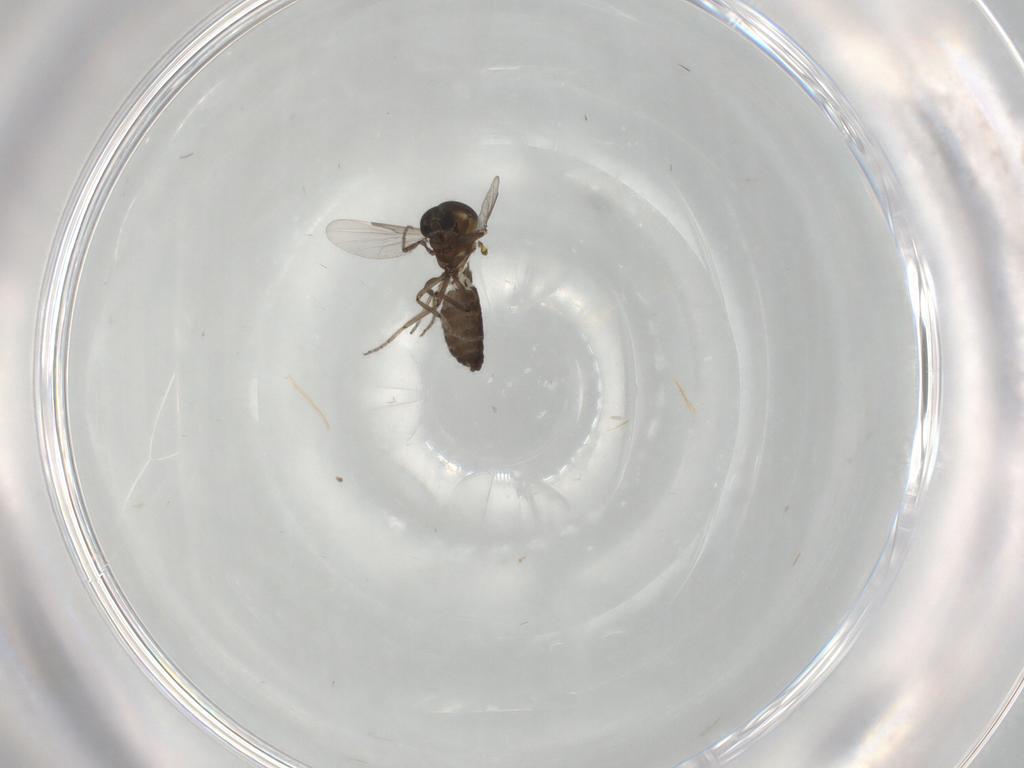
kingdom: Animalia
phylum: Arthropoda
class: Insecta
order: Diptera
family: Ceratopogonidae
